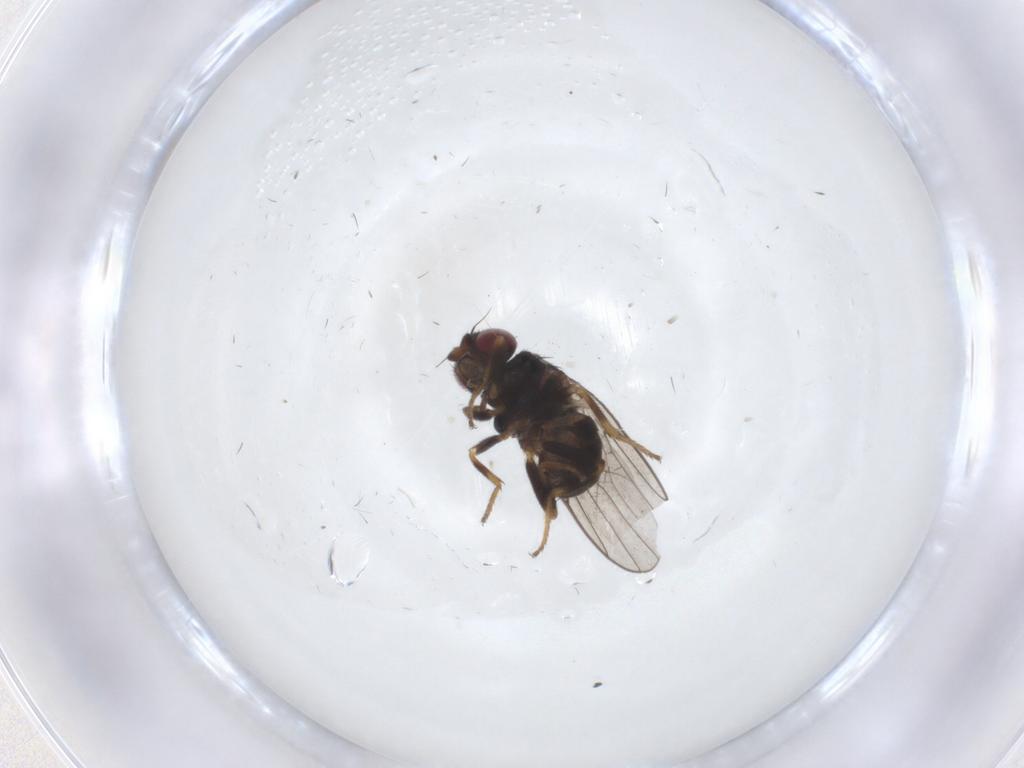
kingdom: Animalia
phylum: Arthropoda
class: Insecta
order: Diptera
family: Chloropidae
